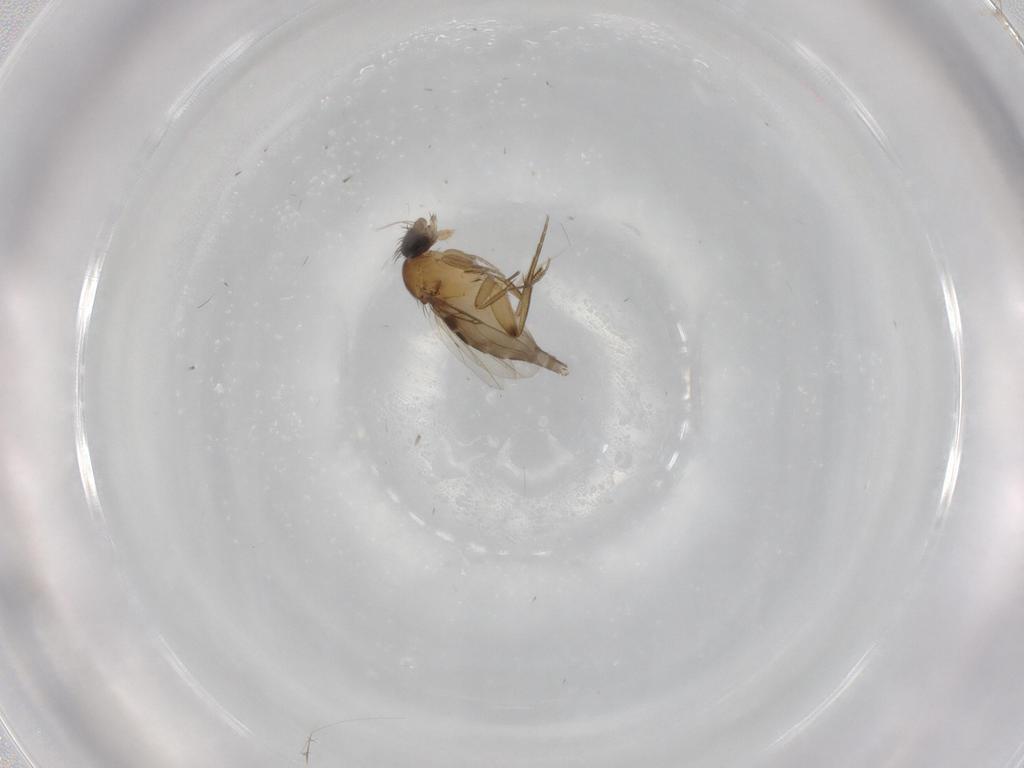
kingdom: Animalia
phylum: Arthropoda
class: Insecta
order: Diptera
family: Phoridae
